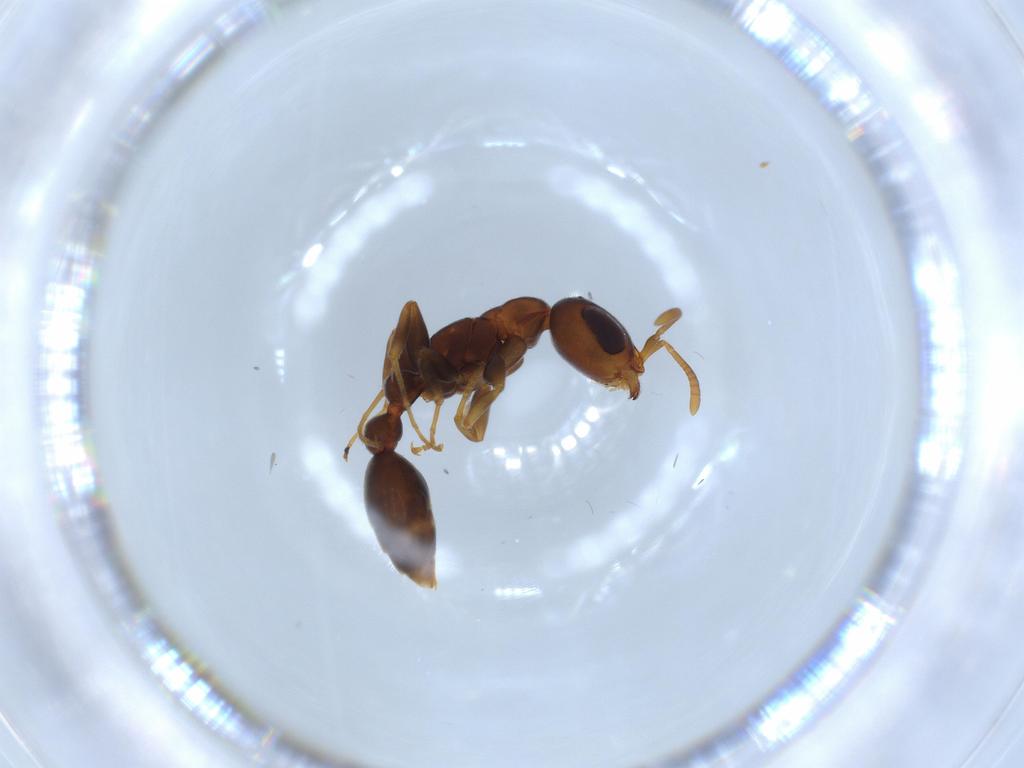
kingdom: Animalia
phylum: Arthropoda
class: Insecta
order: Hymenoptera
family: Formicidae
